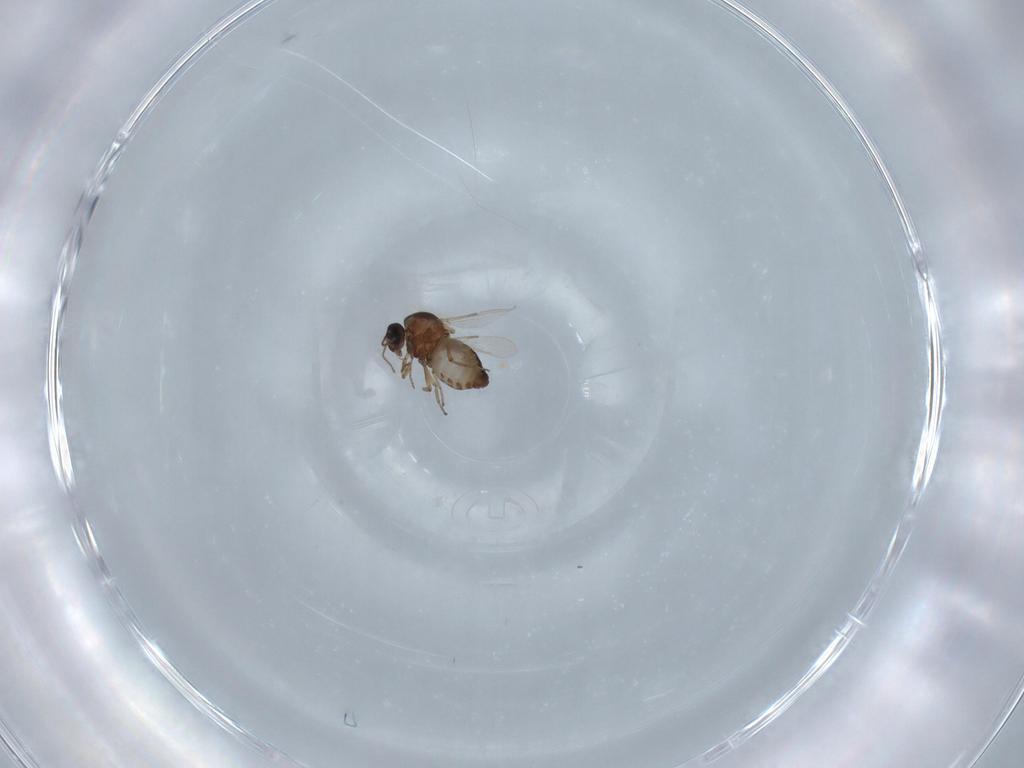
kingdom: Animalia
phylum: Arthropoda
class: Insecta
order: Diptera
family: Ceratopogonidae
